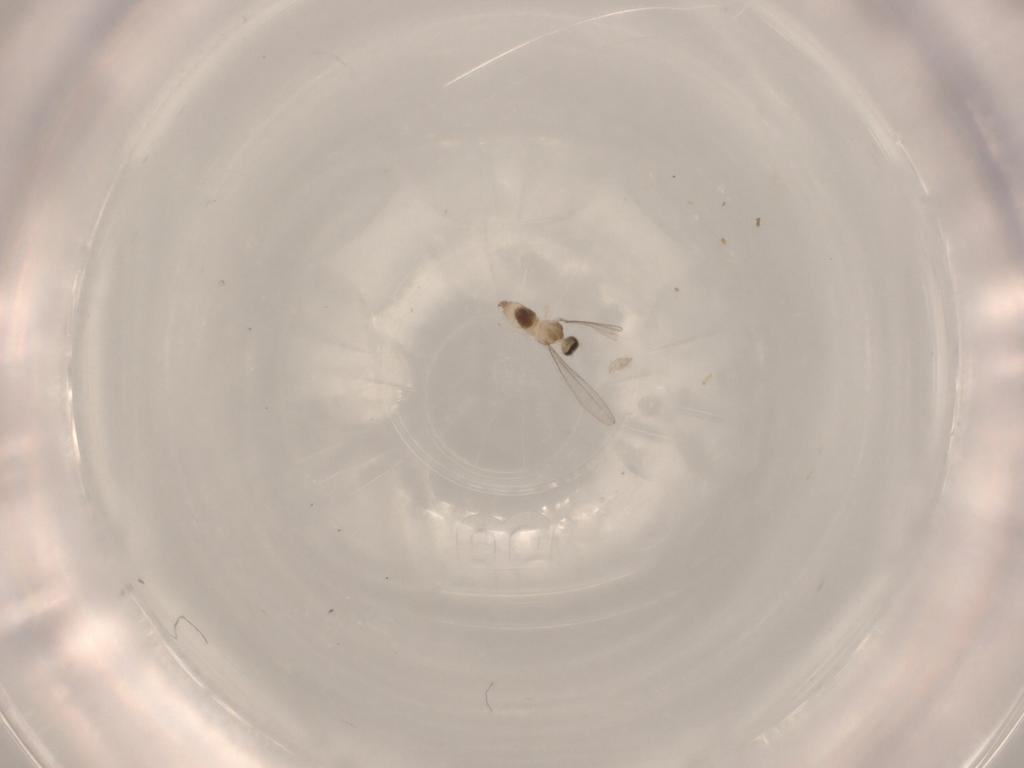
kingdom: Animalia
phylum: Arthropoda
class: Insecta
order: Diptera
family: Cecidomyiidae
